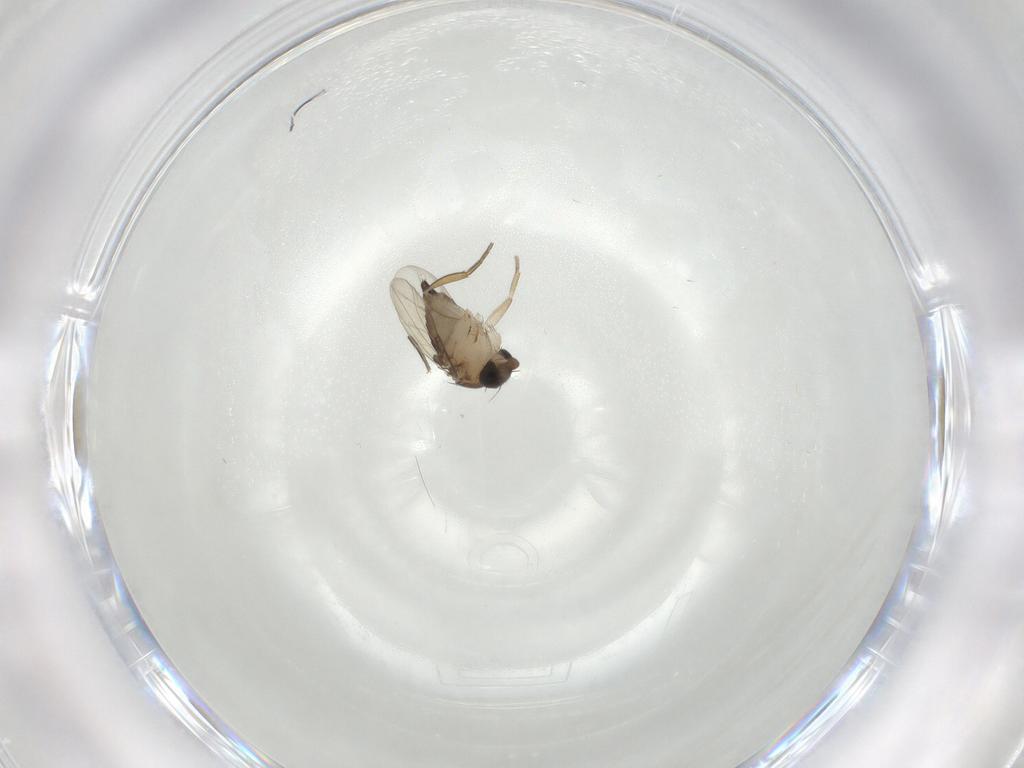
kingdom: Animalia
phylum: Arthropoda
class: Insecta
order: Diptera
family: Phoridae
